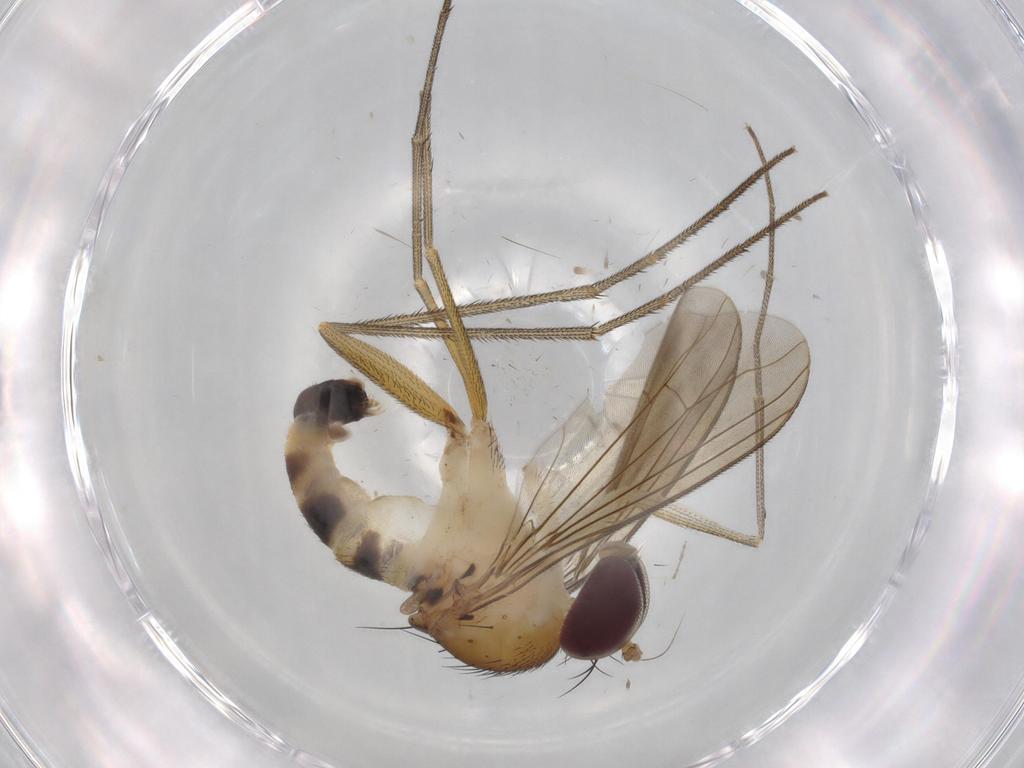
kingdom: Animalia
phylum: Arthropoda
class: Insecta
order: Diptera
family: Dolichopodidae
